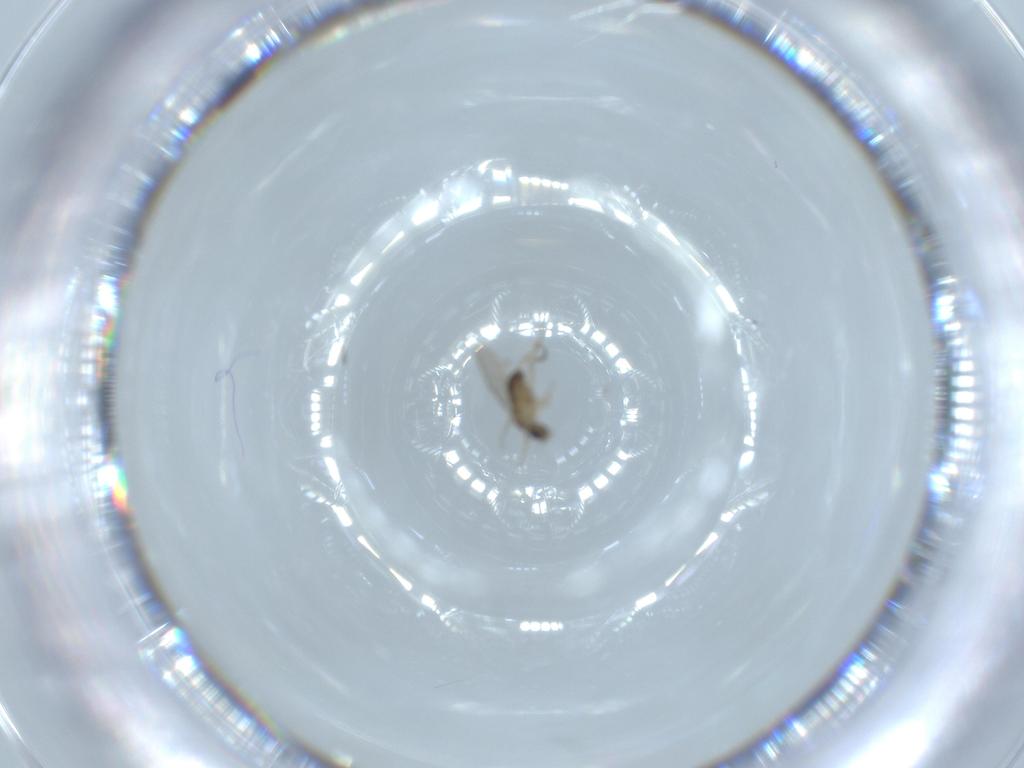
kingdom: Animalia
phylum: Arthropoda
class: Insecta
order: Diptera
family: Phoridae
